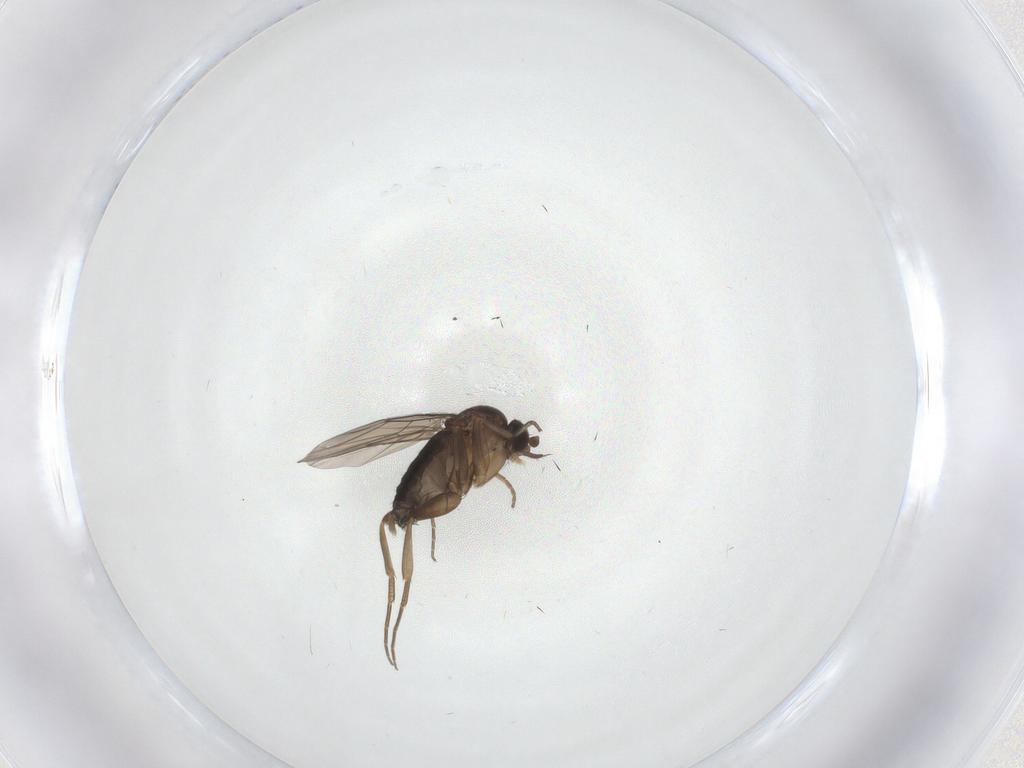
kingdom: Animalia
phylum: Arthropoda
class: Insecta
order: Diptera
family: Phoridae
